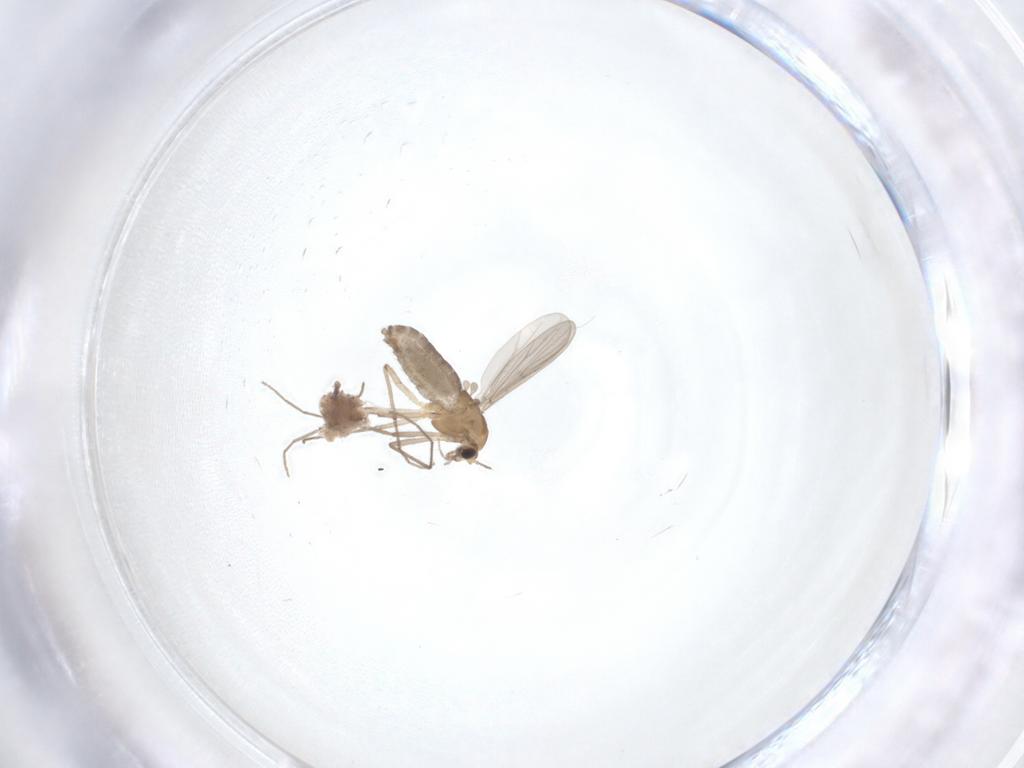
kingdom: Animalia
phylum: Arthropoda
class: Insecta
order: Diptera
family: Chironomidae
